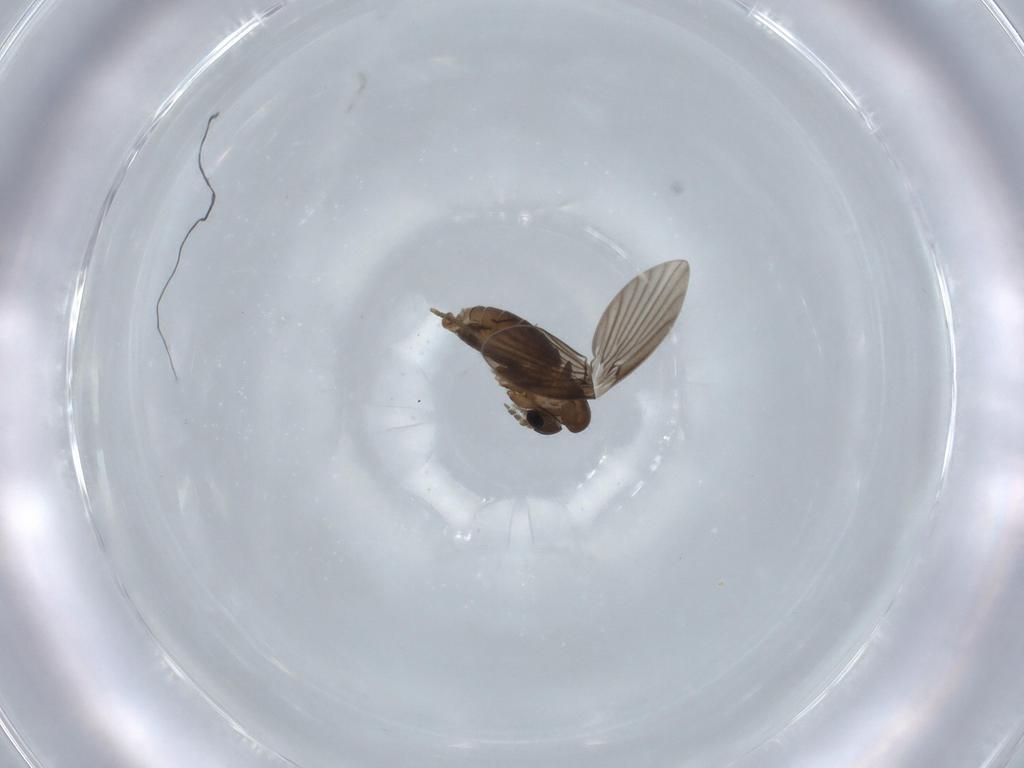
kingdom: Animalia
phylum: Arthropoda
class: Insecta
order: Diptera
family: Psychodidae
